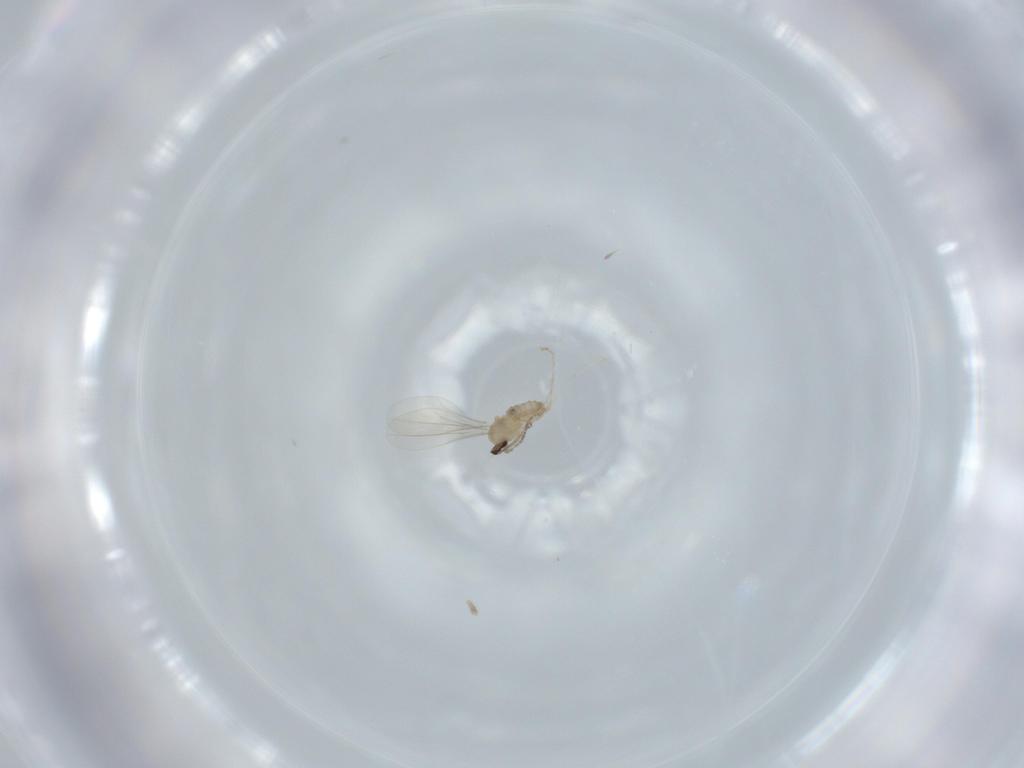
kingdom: Animalia
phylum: Arthropoda
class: Insecta
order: Diptera
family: Cecidomyiidae
